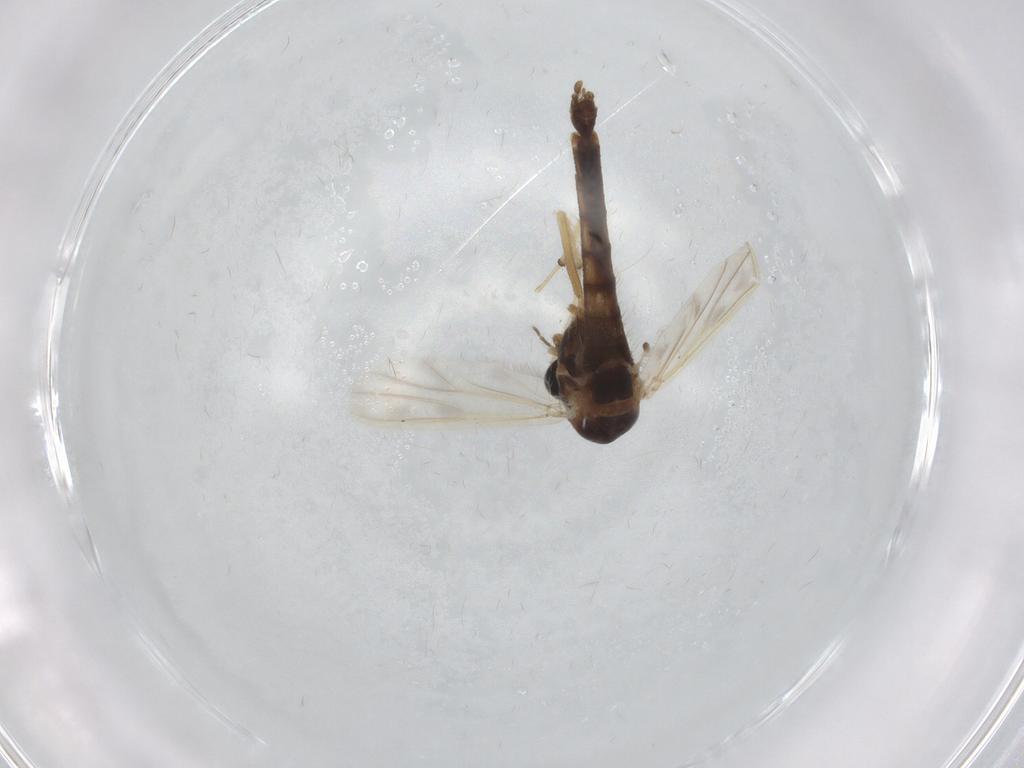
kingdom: Animalia
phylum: Arthropoda
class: Insecta
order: Diptera
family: Chironomidae
